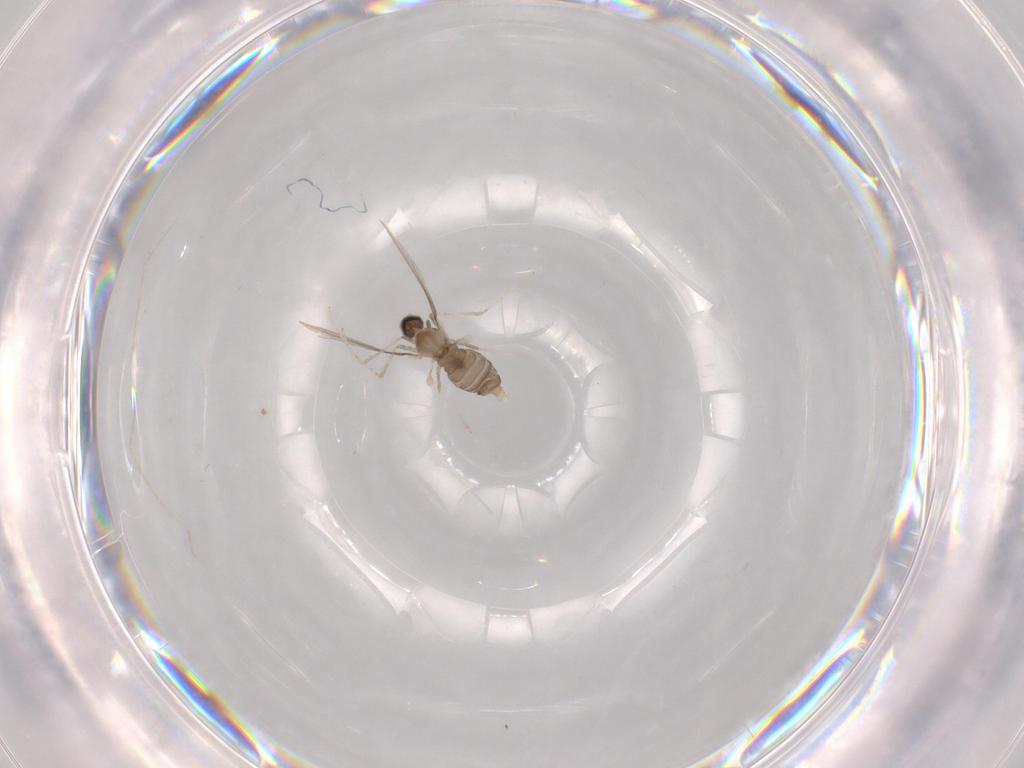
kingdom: Animalia
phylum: Arthropoda
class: Insecta
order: Diptera
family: Cecidomyiidae
